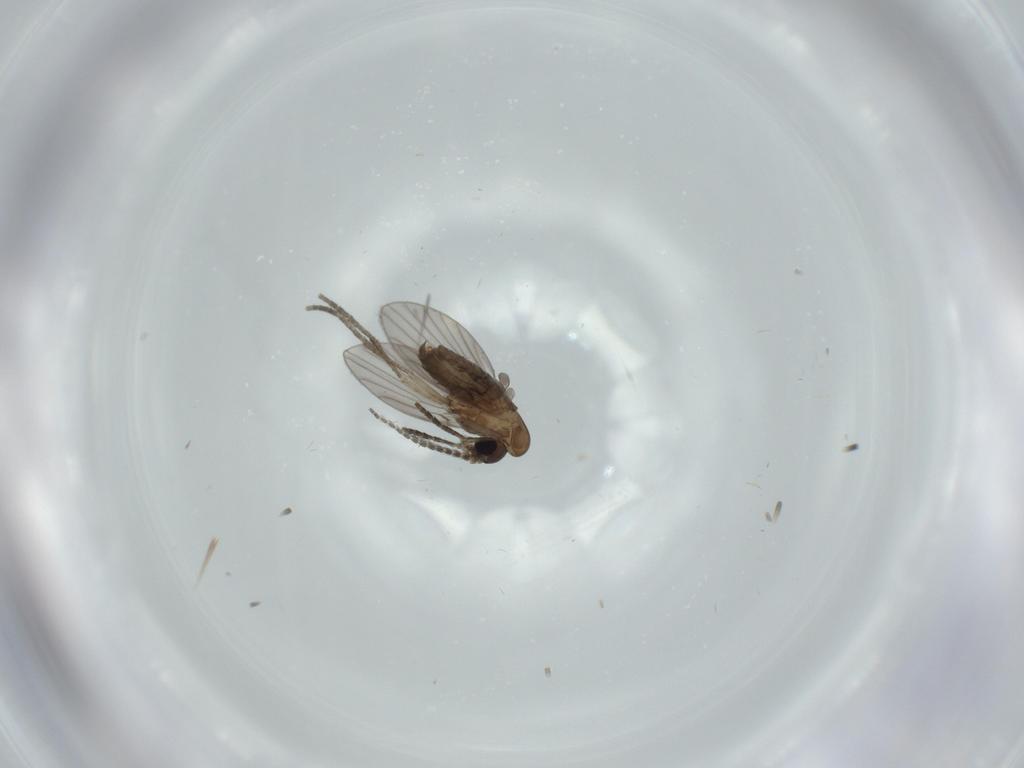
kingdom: Animalia
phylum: Arthropoda
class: Insecta
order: Diptera
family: Psychodidae
